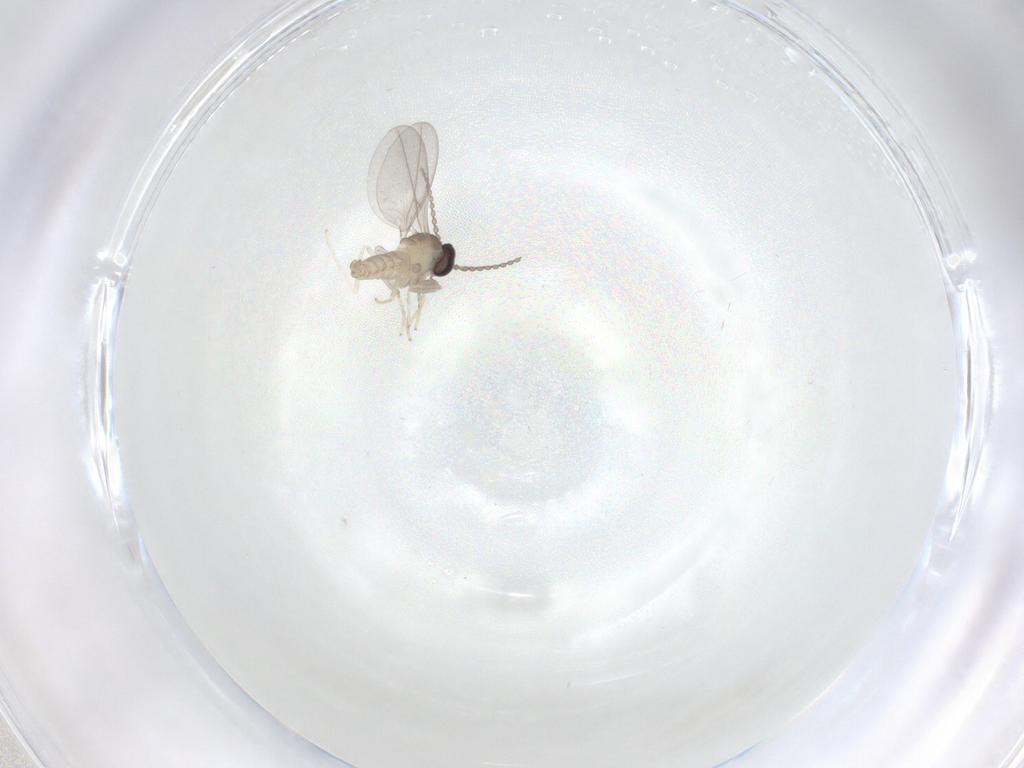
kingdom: Animalia
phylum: Arthropoda
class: Insecta
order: Diptera
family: Cecidomyiidae
